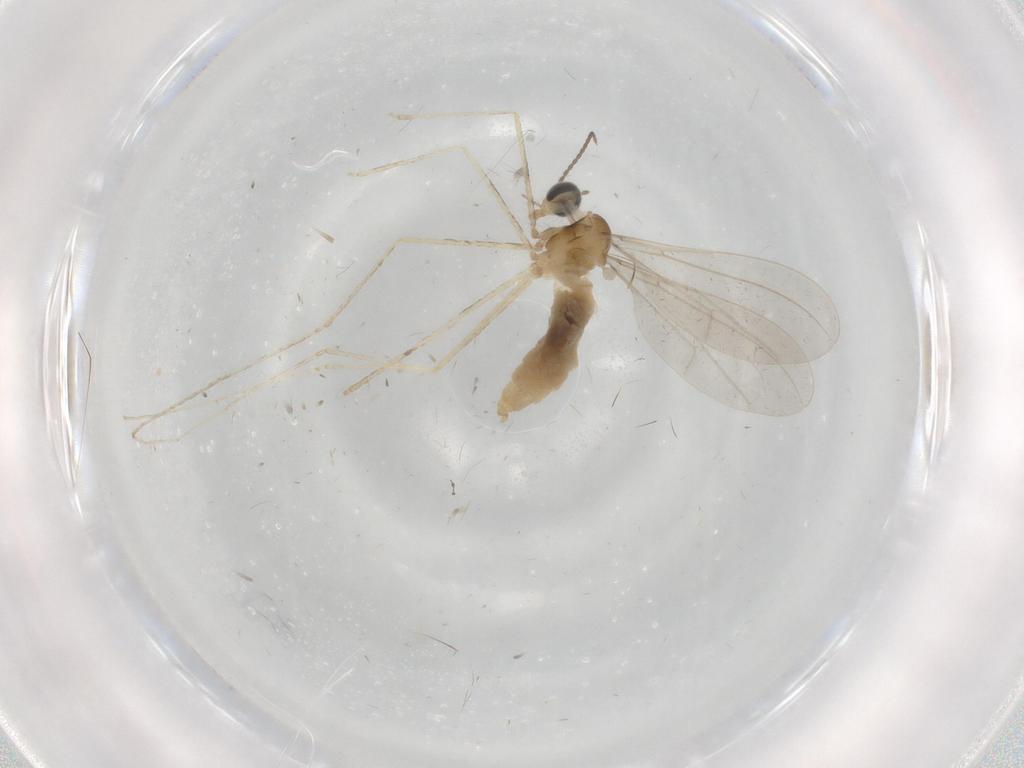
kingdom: Animalia
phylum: Arthropoda
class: Insecta
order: Diptera
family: Cecidomyiidae
